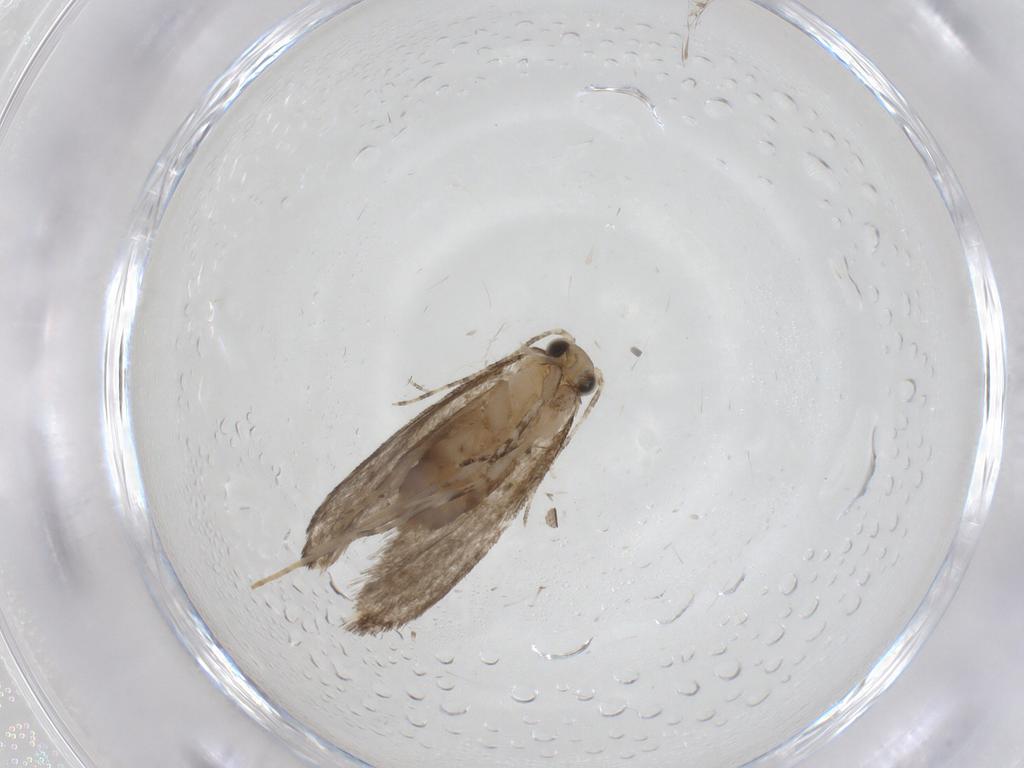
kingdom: Animalia
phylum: Arthropoda
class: Insecta
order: Lepidoptera
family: Tineidae
